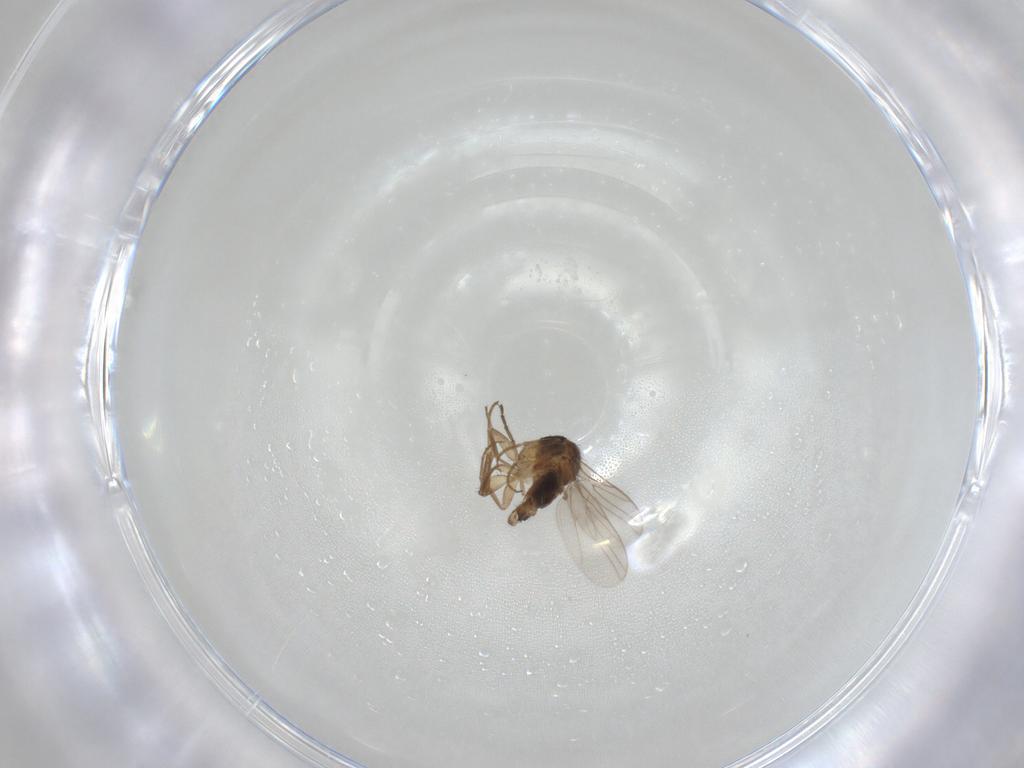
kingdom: Animalia
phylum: Arthropoda
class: Insecta
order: Diptera
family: Hybotidae
